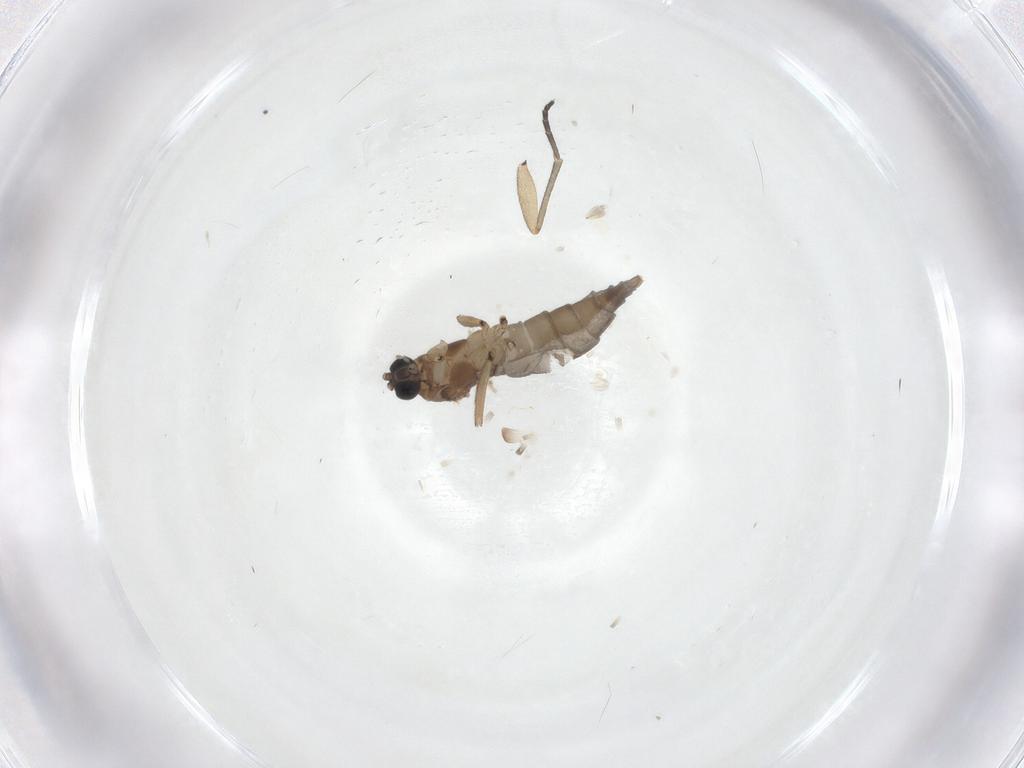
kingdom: Animalia
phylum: Arthropoda
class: Insecta
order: Diptera
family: Sciaridae
